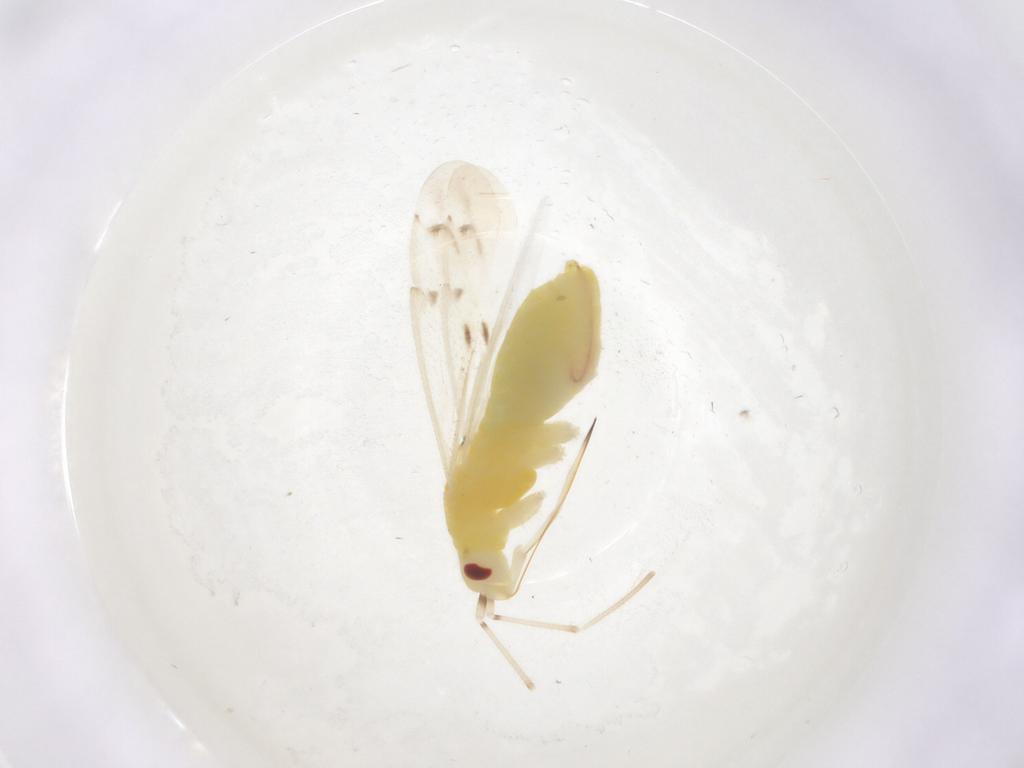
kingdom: Animalia
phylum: Arthropoda
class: Insecta
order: Hemiptera
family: Miridae
